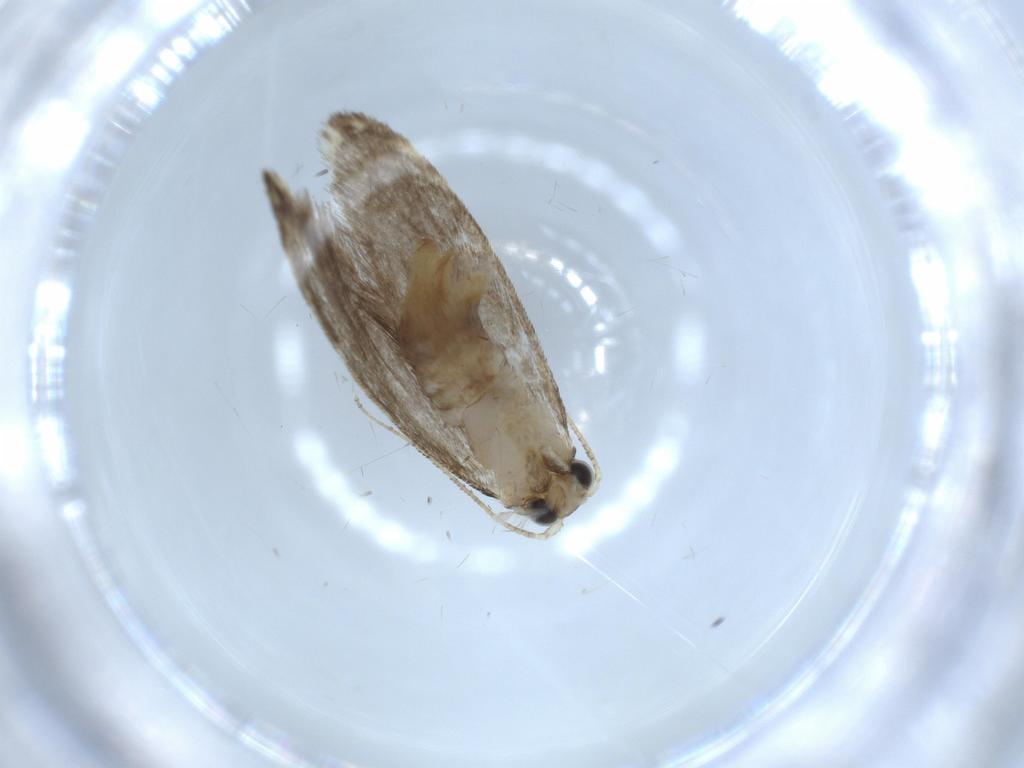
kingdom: Animalia
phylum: Arthropoda
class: Insecta
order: Lepidoptera
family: Tineidae
